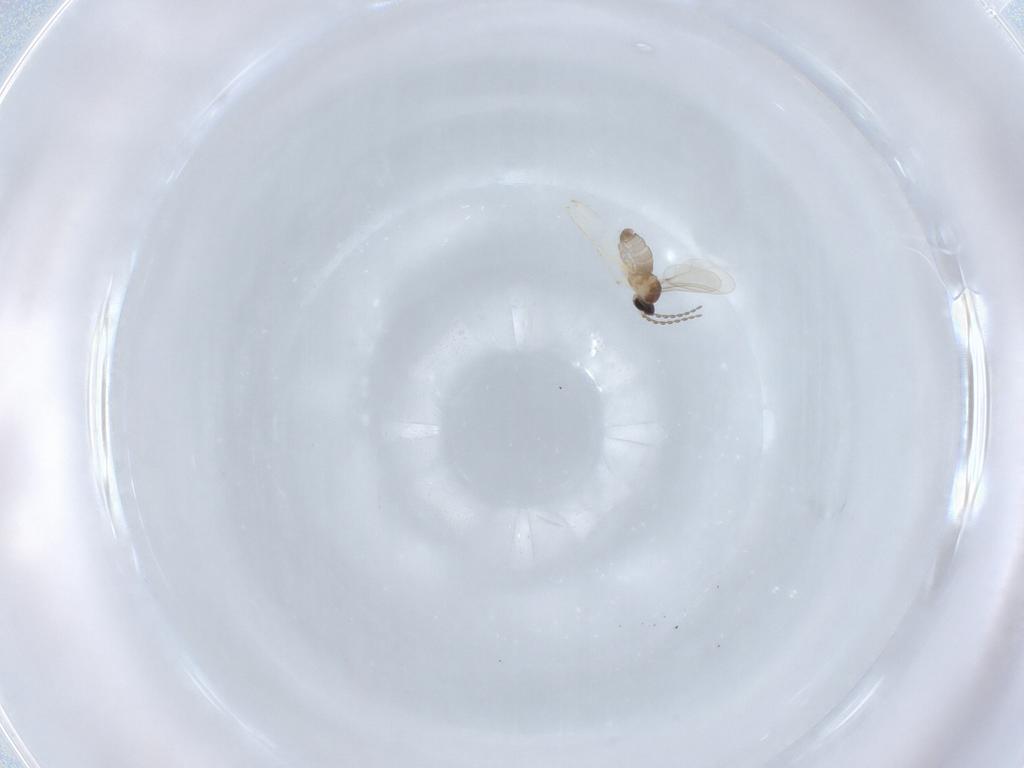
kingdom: Animalia
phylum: Arthropoda
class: Insecta
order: Diptera
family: Cecidomyiidae
